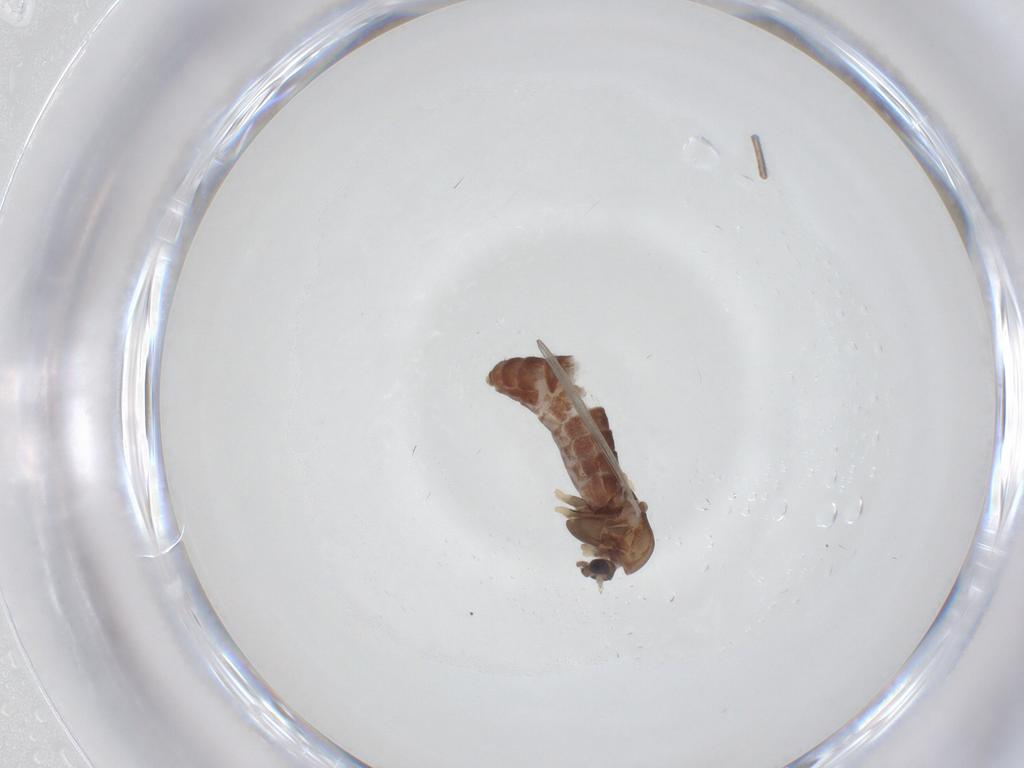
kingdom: Animalia
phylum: Arthropoda
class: Insecta
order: Diptera
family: Chironomidae
